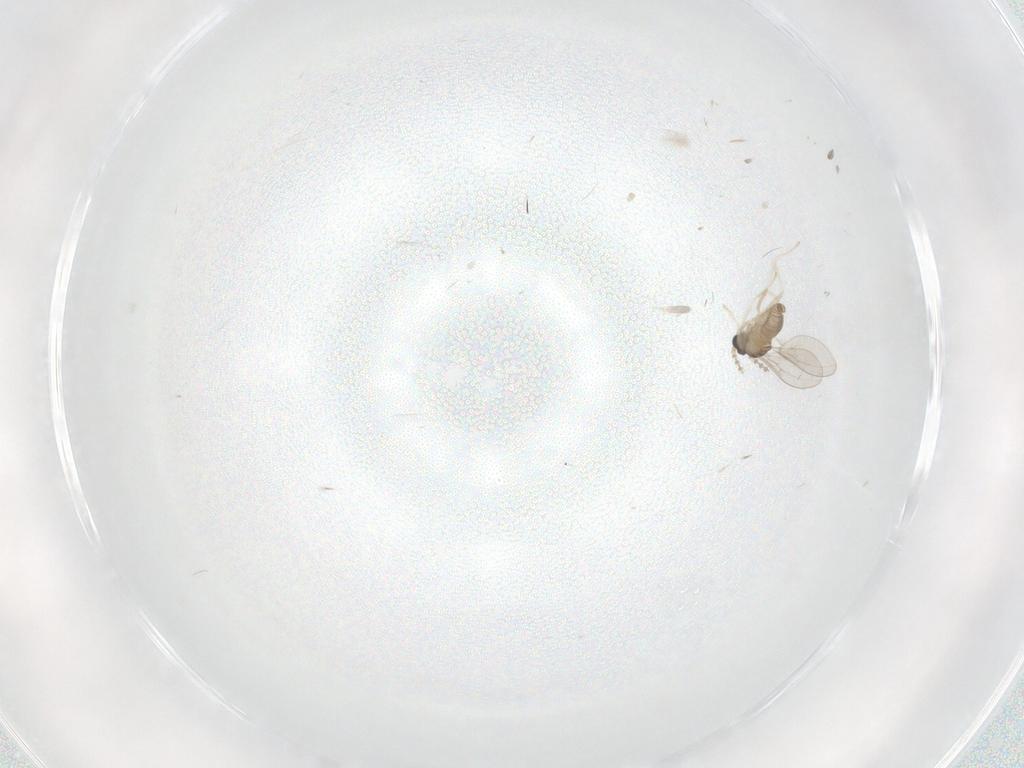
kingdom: Animalia
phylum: Arthropoda
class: Insecta
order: Diptera
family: Cecidomyiidae
